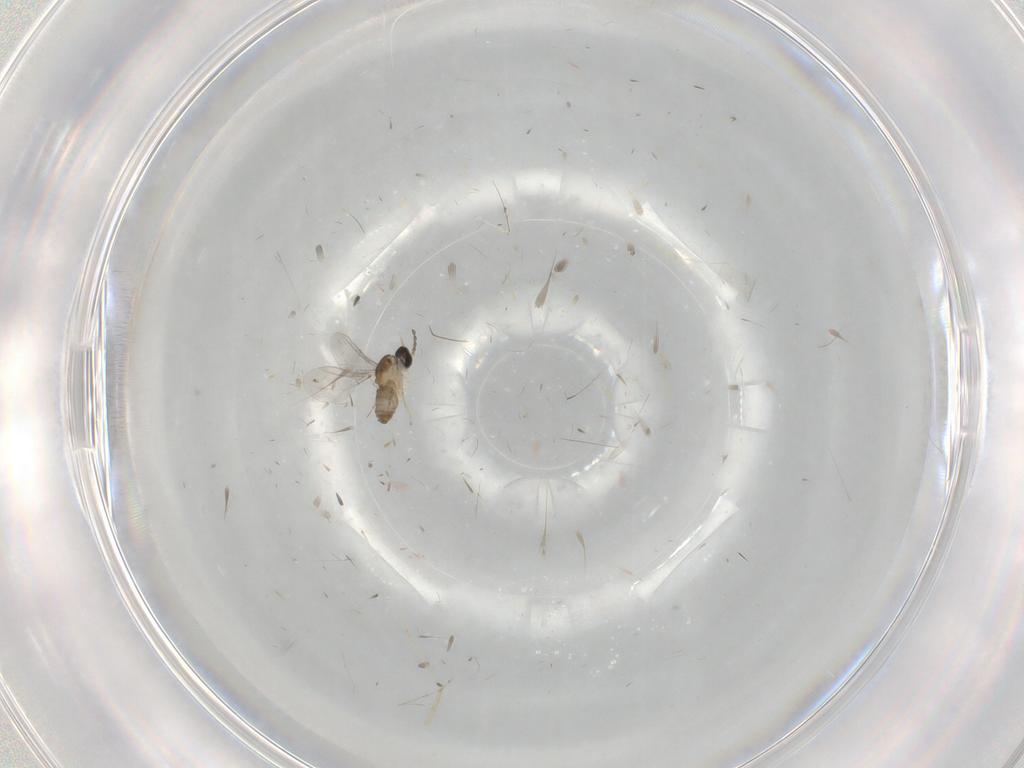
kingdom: Animalia
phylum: Arthropoda
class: Insecta
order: Diptera
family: Cecidomyiidae
